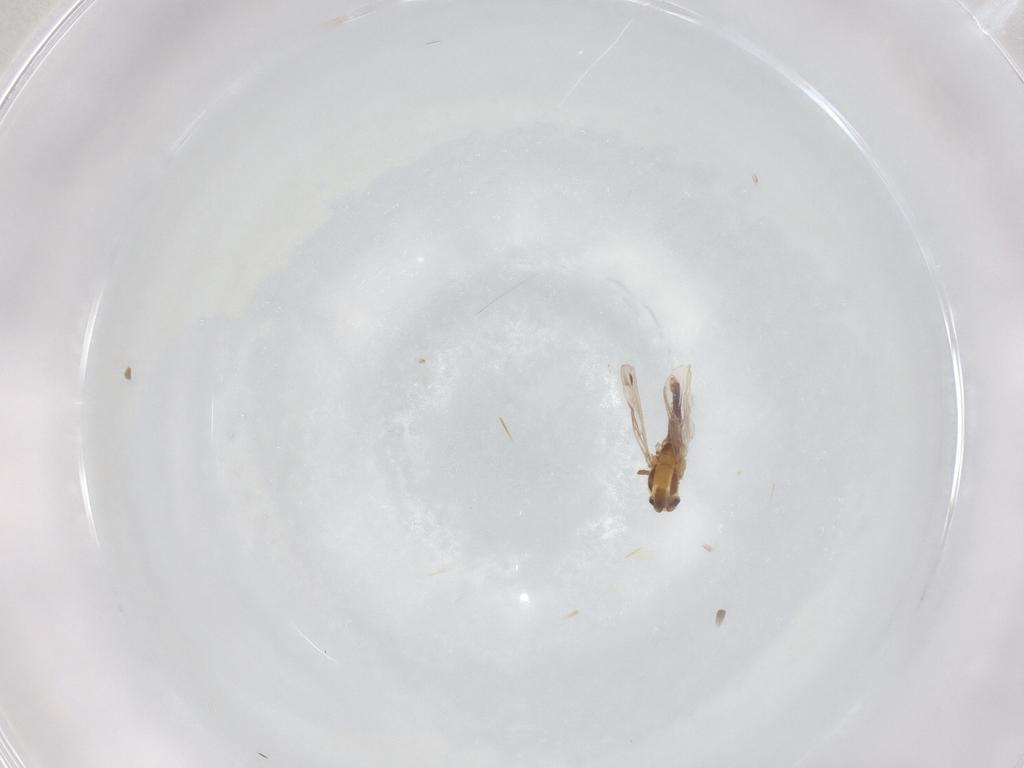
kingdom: Animalia
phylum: Arthropoda
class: Insecta
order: Diptera
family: Chironomidae
